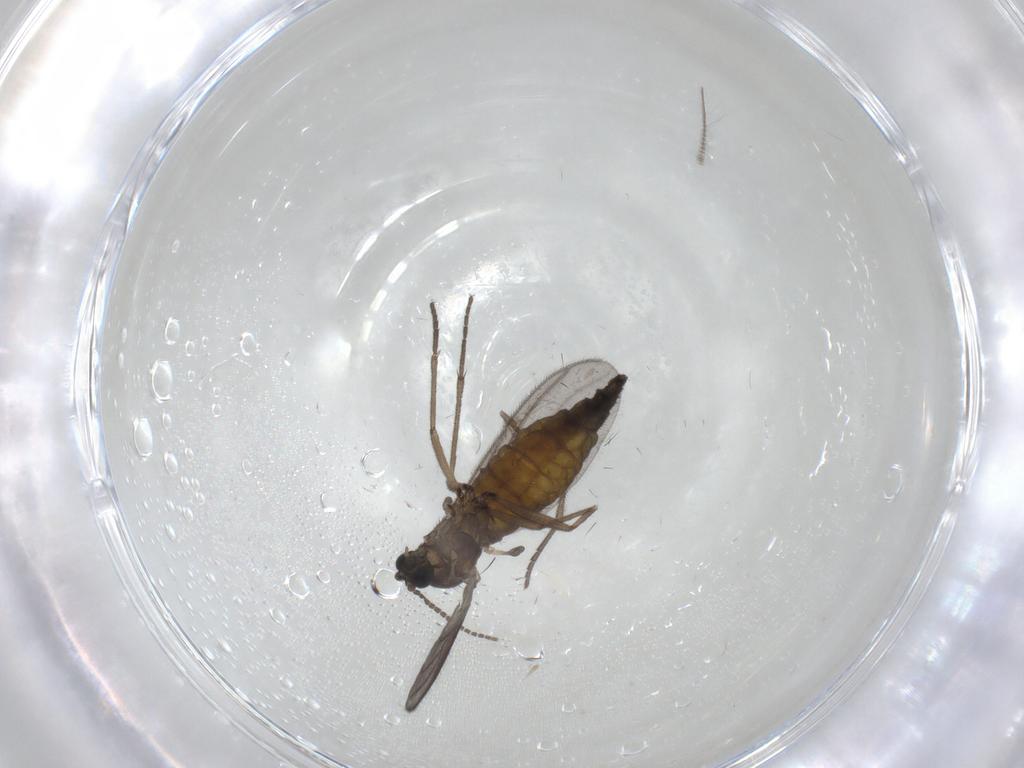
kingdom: Animalia
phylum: Arthropoda
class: Insecta
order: Diptera
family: Sciaridae
